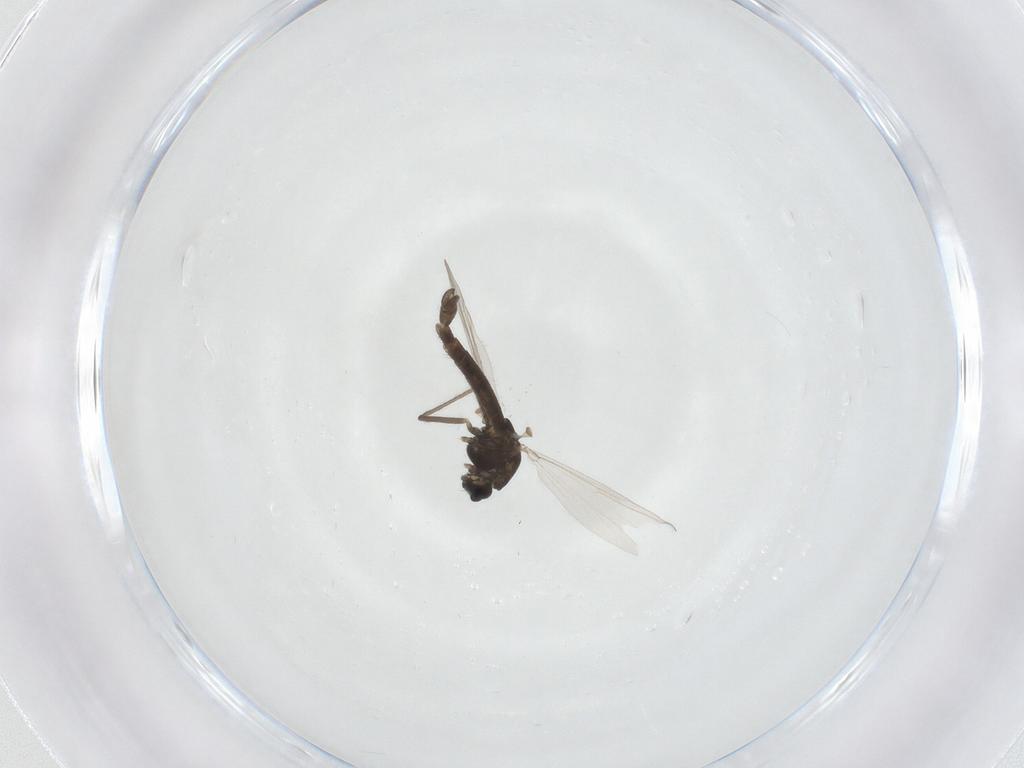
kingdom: Animalia
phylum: Arthropoda
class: Insecta
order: Diptera
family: Chironomidae
